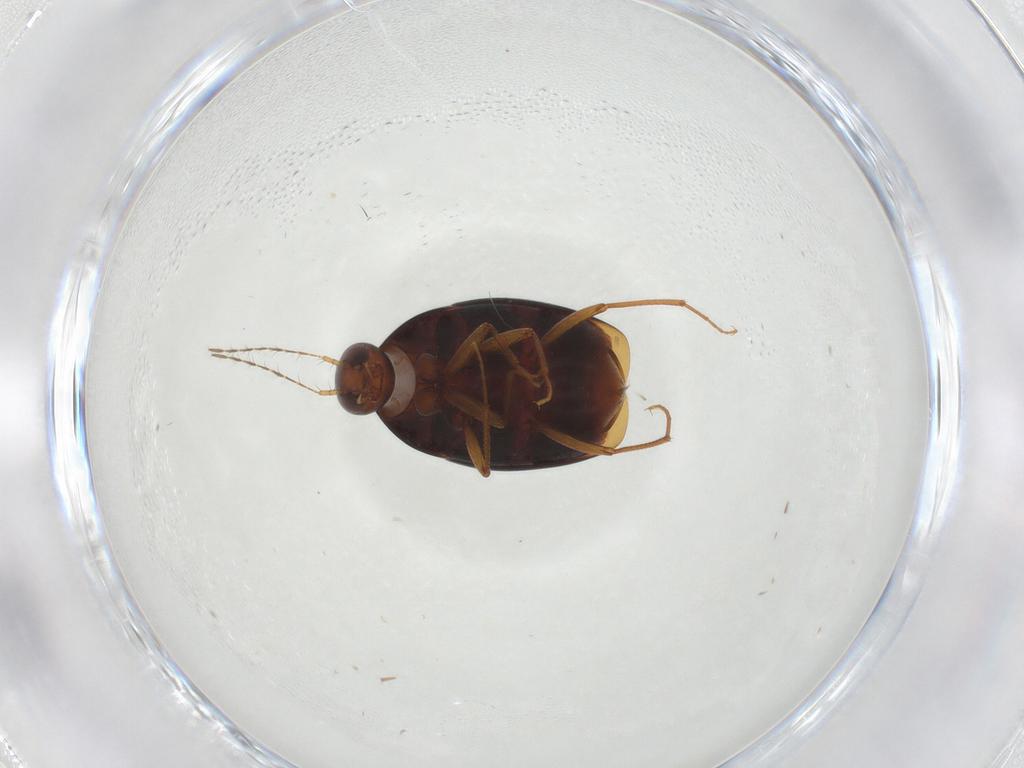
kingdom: Animalia
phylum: Arthropoda
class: Insecta
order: Coleoptera
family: Staphylinidae
